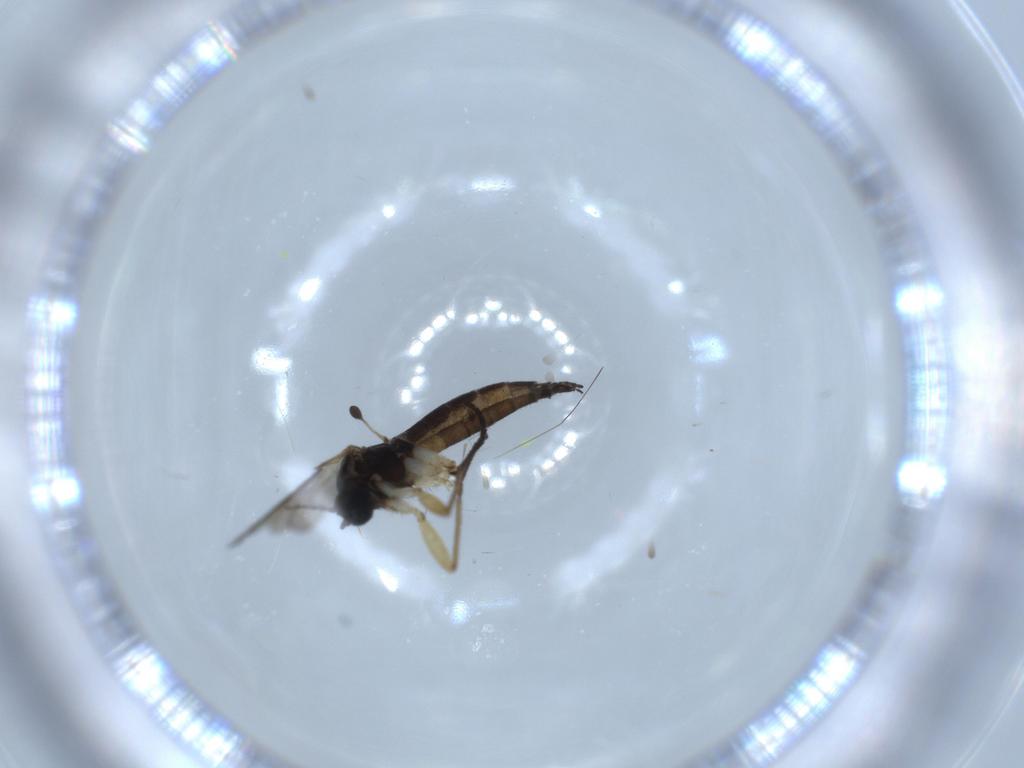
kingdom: Animalia
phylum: Arthropoda
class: Insecta
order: Diptera
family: Sciaridae
